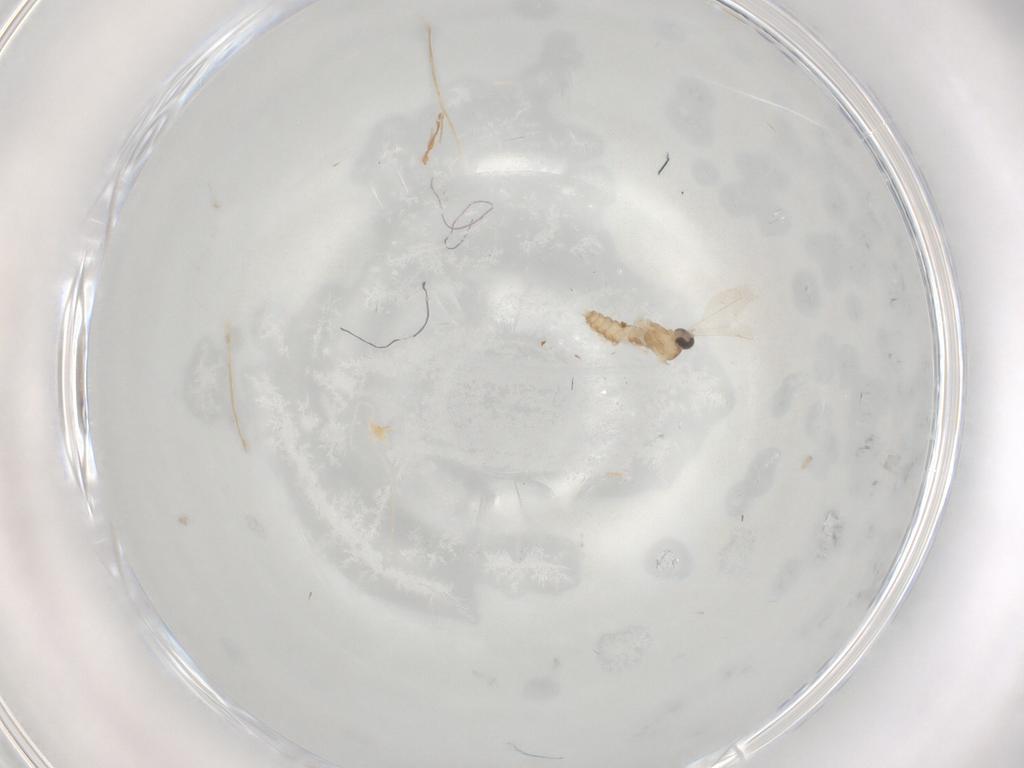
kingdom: Animalia
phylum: Arthropoda
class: Insecta
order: Diptera
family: Cecidomyiidae
